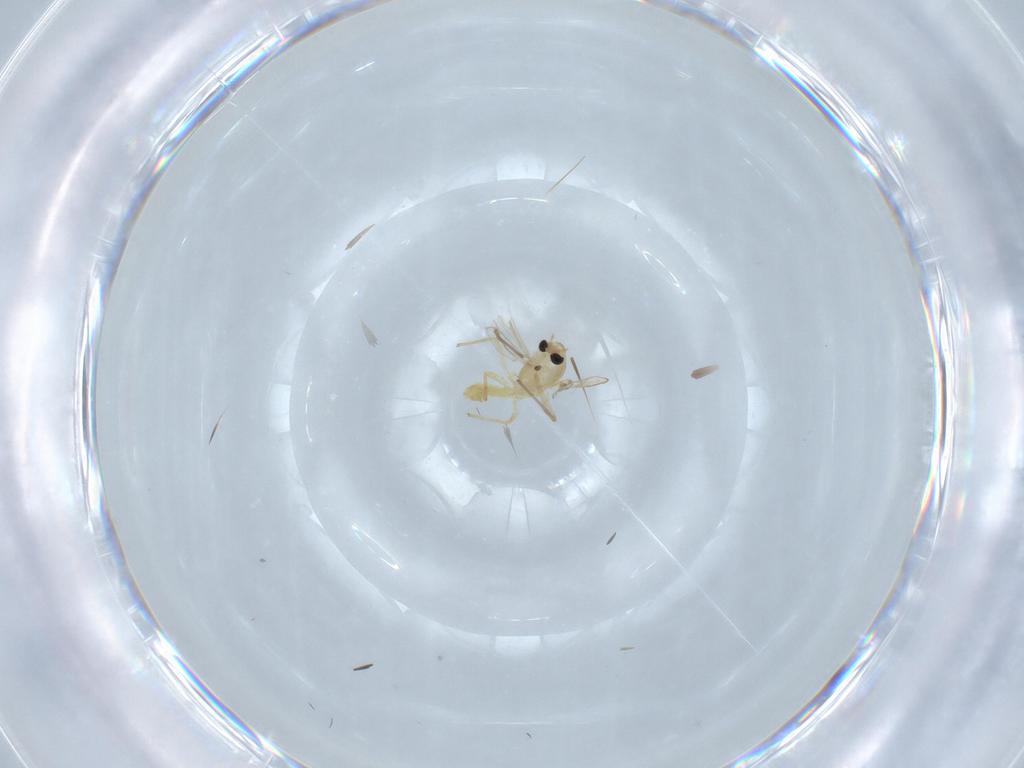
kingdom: Animalia
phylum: Arthropoda
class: Insecta
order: Diptera
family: Chironomidae
